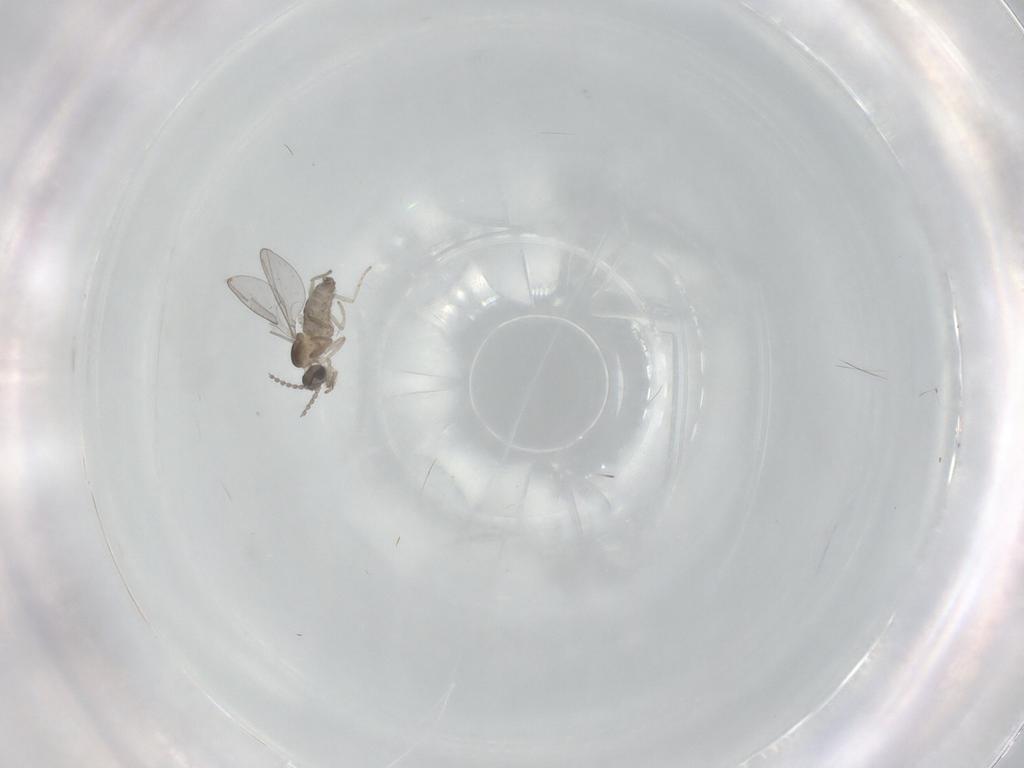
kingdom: Animalia
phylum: Arthropoda
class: Insecta
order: Diptera
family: Cecidomyiidae
